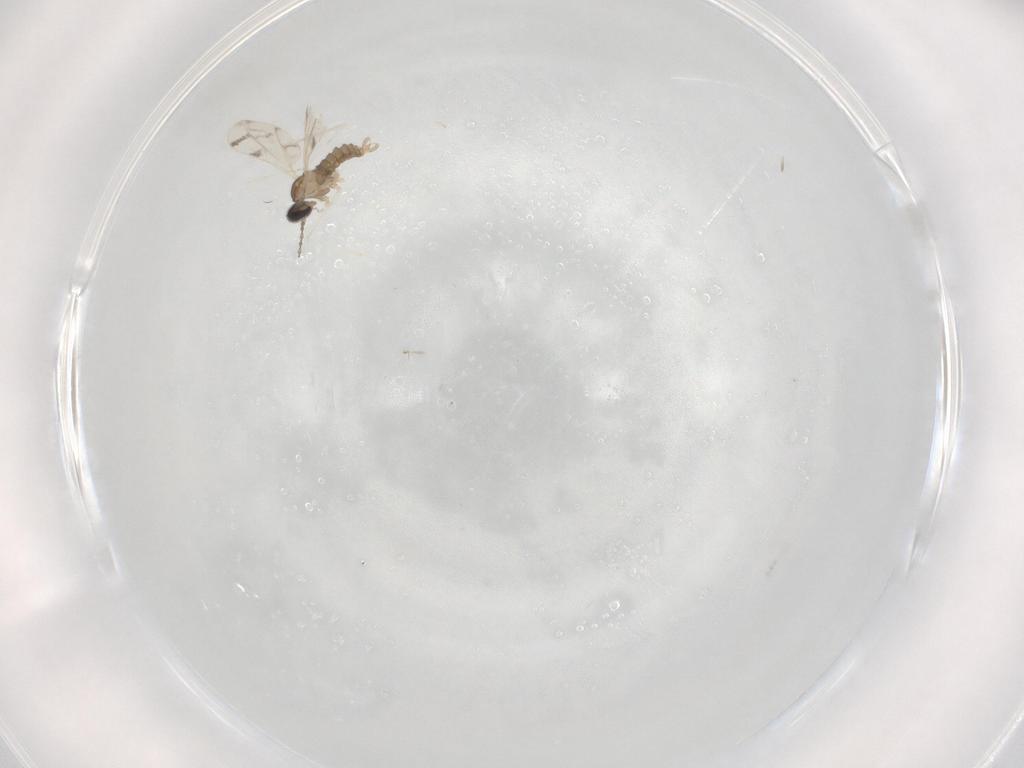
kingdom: Animalia
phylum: Arthropoda
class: Insecta
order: Diptera
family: Cecidomyiidae
